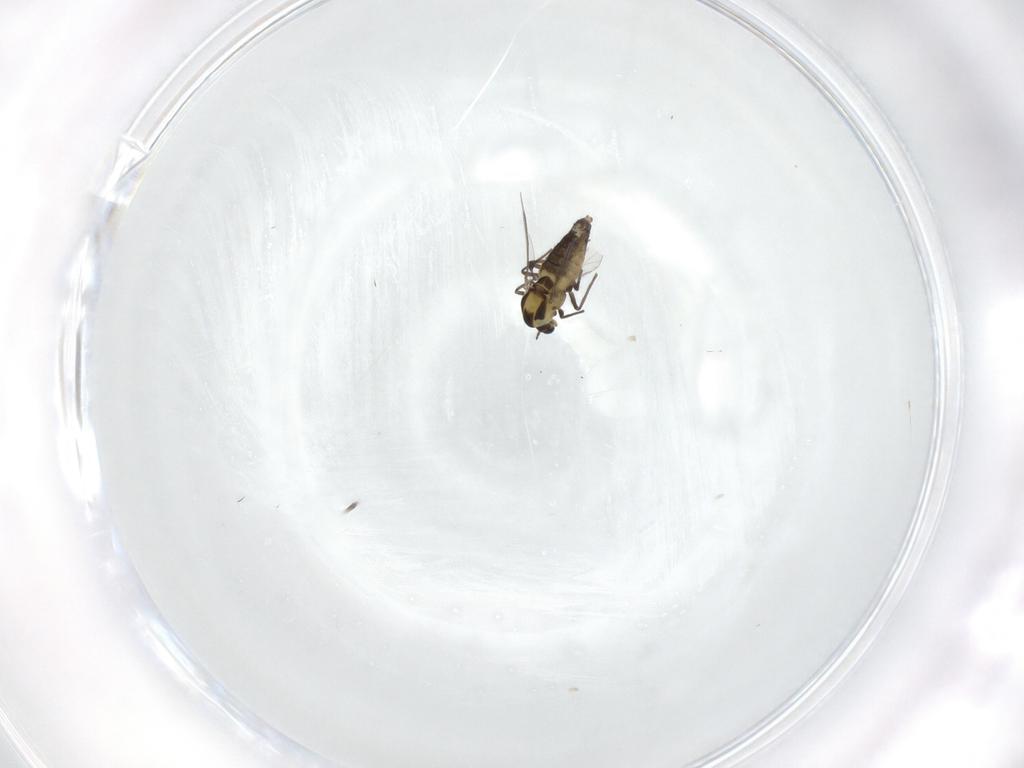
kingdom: Animalia
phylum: Arthropoda
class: Insecta
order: Diptera
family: Chironomidae
